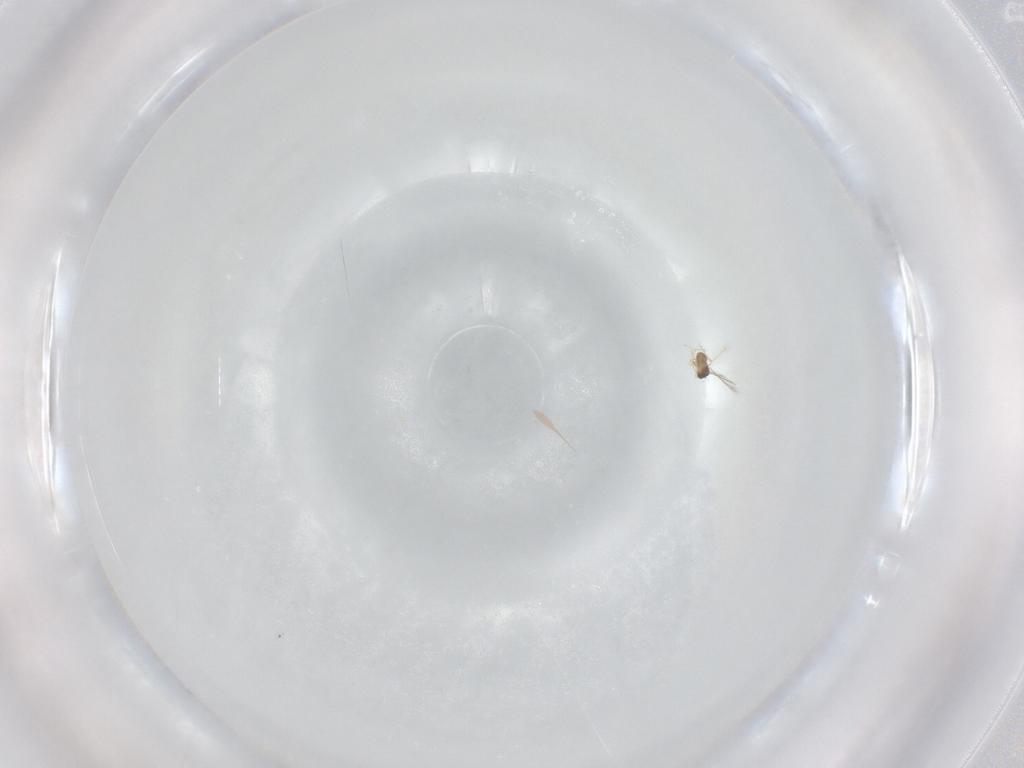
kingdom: Animalia
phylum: Arthropoda
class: Insecta
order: Hymenoptera
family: Mymaridae
